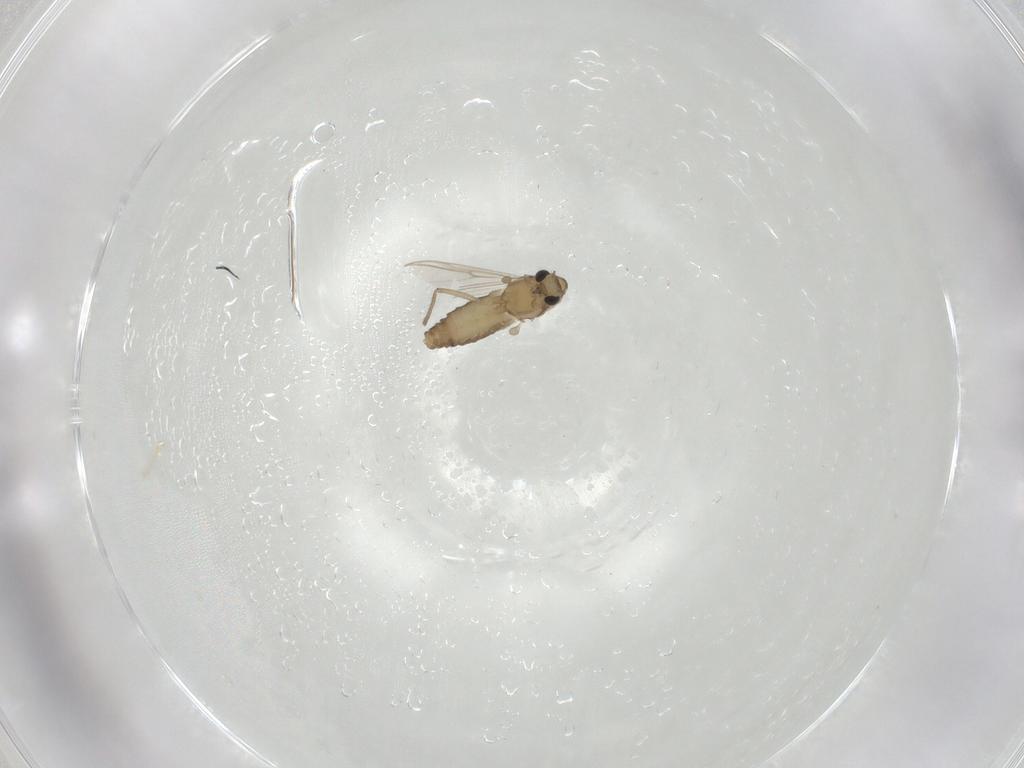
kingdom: Animalia
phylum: Arthropoda
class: Insecta
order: Diptera
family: Chironomidae
